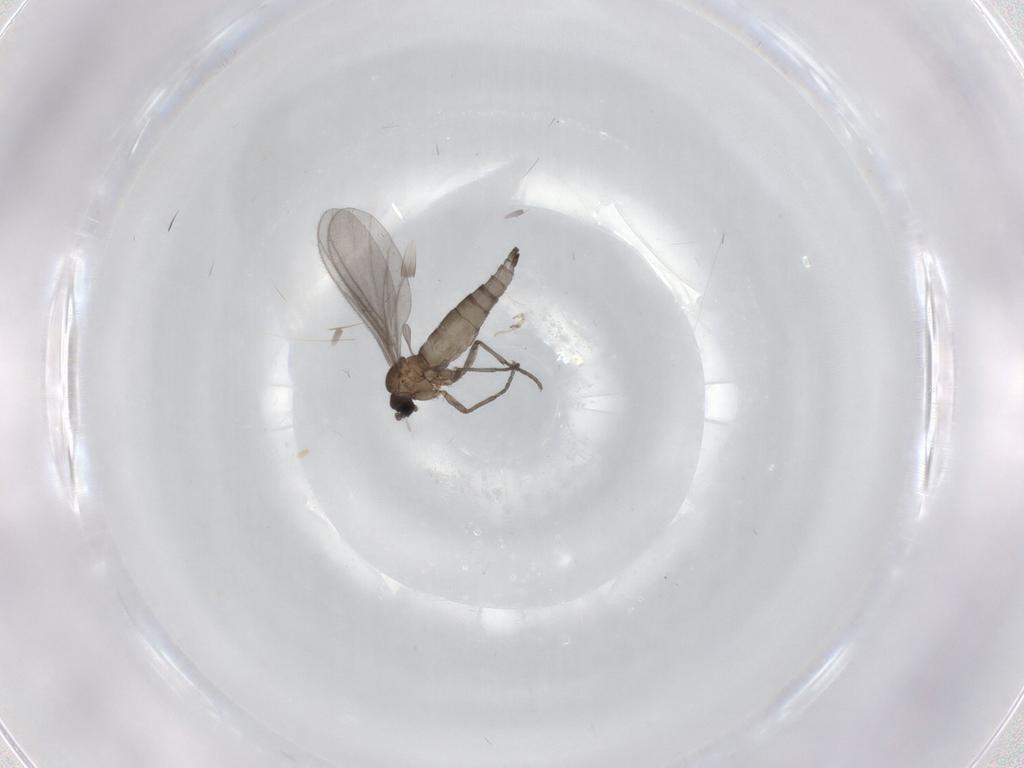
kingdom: Animalia
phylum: Arthropoda
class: Insecta
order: Diptera
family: Sciaridae
